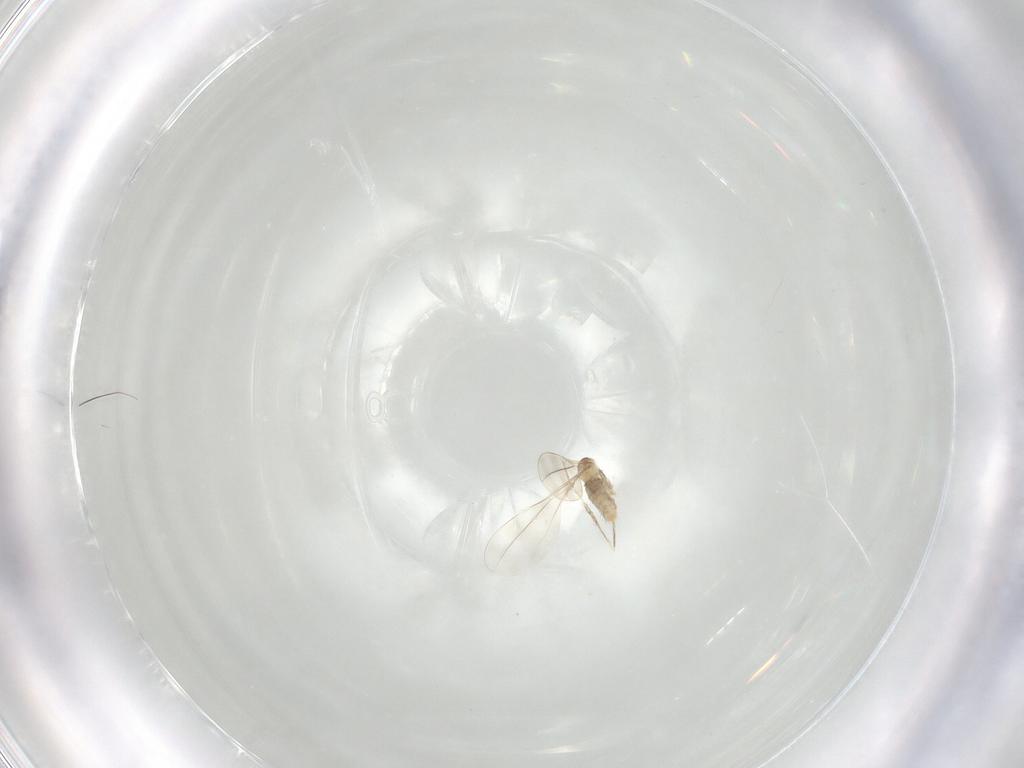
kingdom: Animalia
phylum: Arthropoda
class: Insecta
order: Diptera
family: Cecidomyiidae
